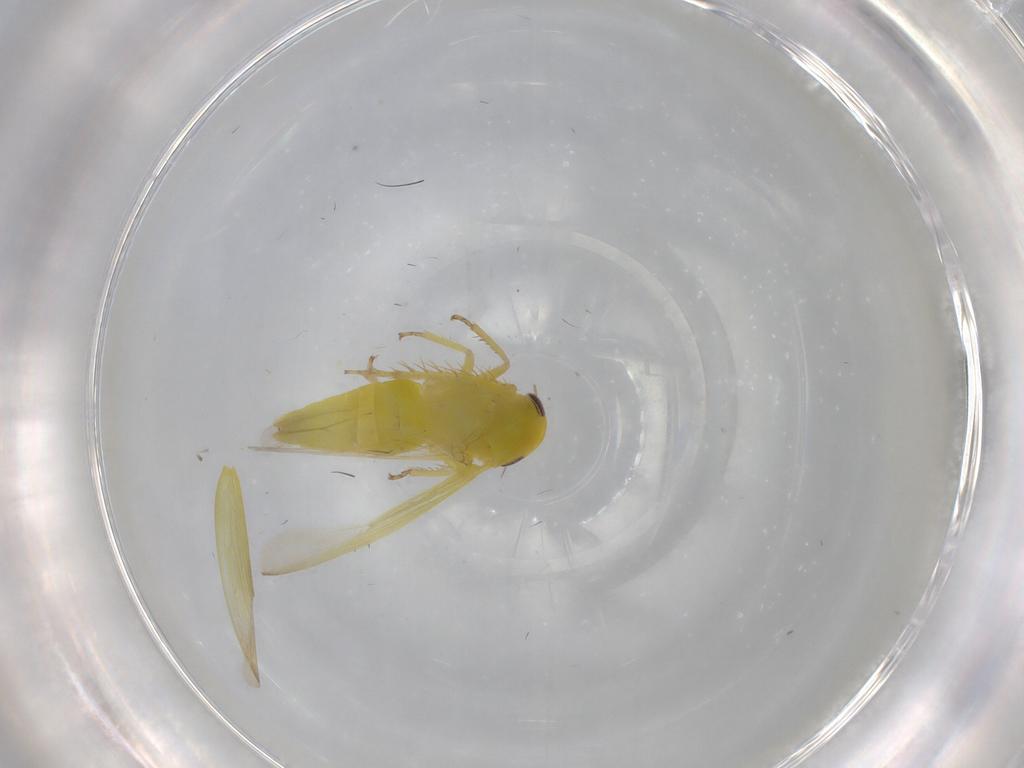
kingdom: Animalia
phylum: Arthropoda
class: Insecta
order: Hemiptera
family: Cicadellidae
